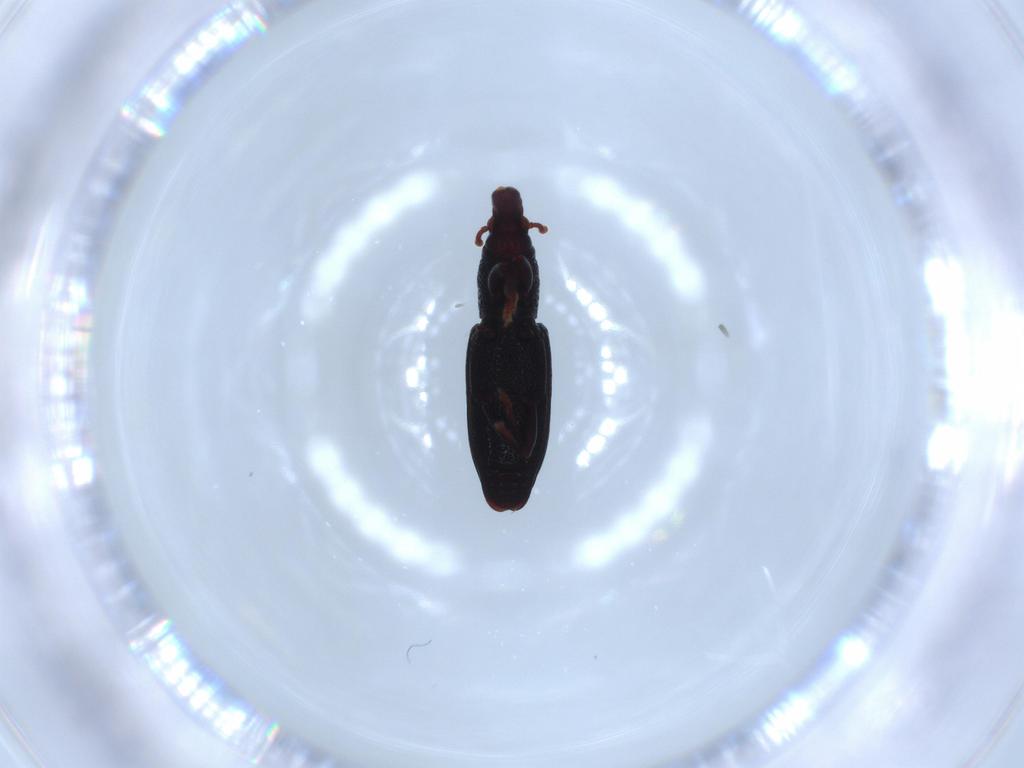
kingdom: Animalia
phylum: Arthropoda
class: Insecta
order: Coleoptera
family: Curculionidae
